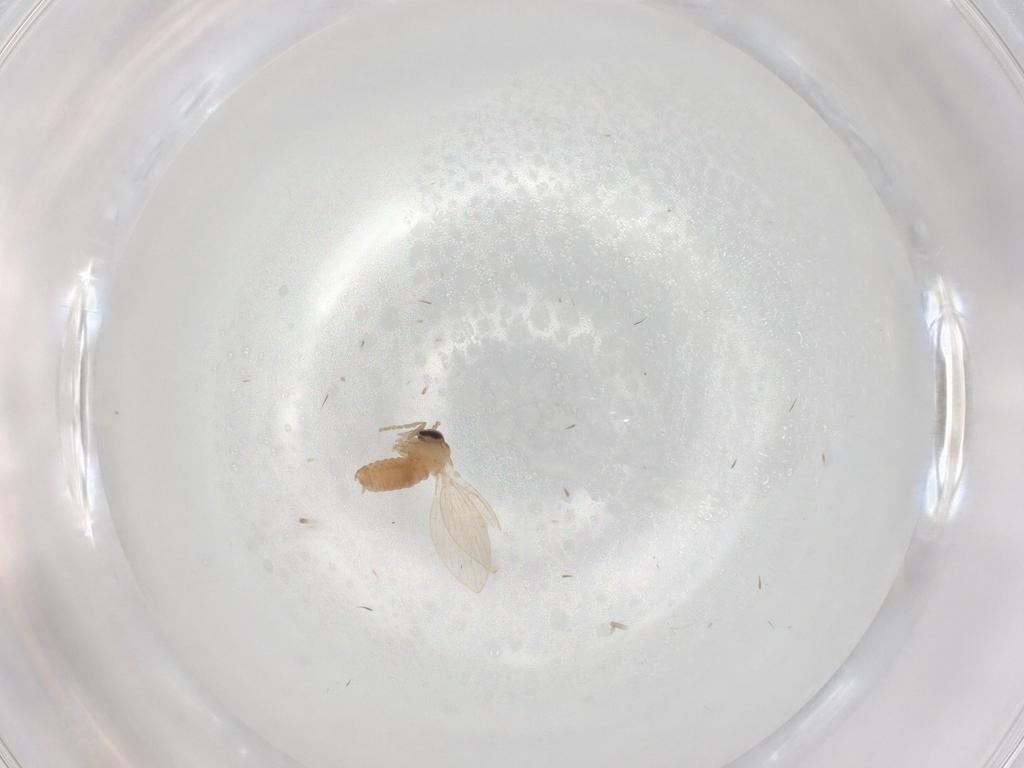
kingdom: Animalia
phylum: Arthropoda
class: Insecta
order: Diptera
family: Psychodidae
